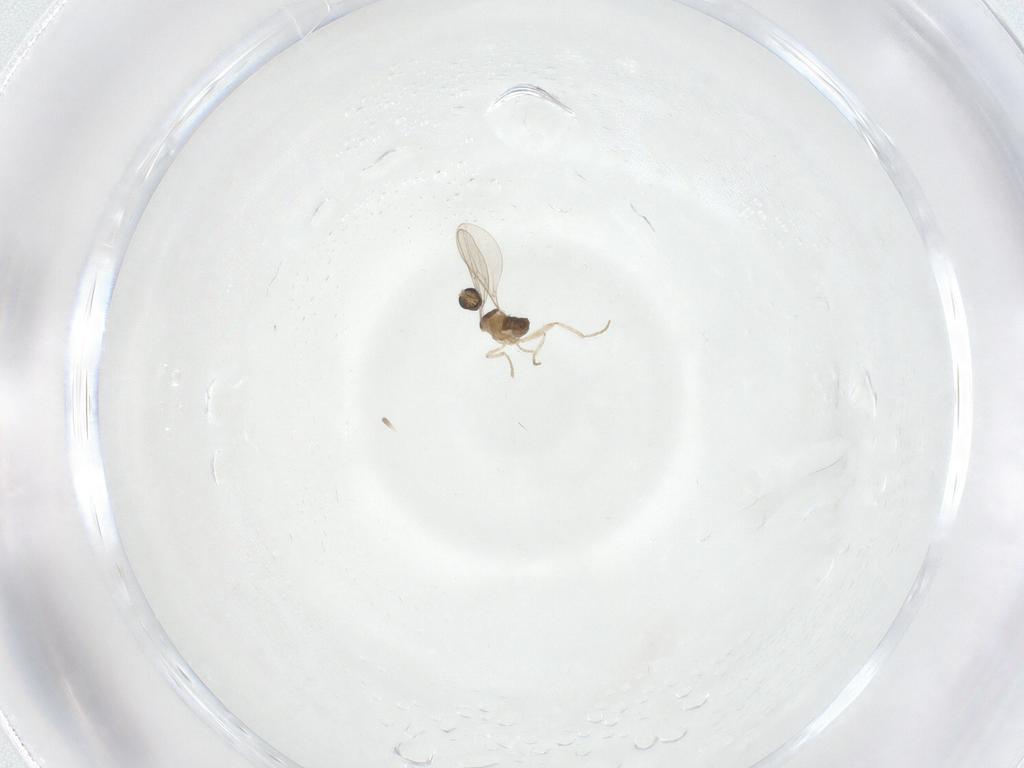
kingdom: Animalia
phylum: Arthropoda
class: Insecta
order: Diptera
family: Cecidomyiidae
